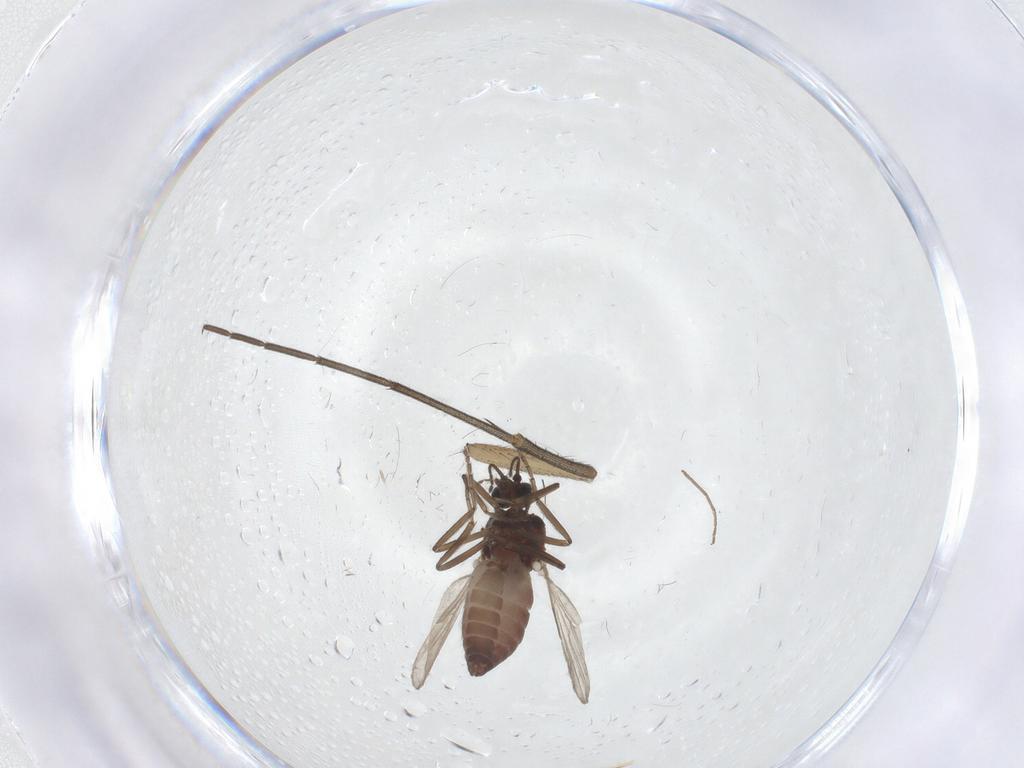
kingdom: Animalia
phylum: Arthropoda
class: Insecta
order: Diptera
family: Ceratopogonidae
